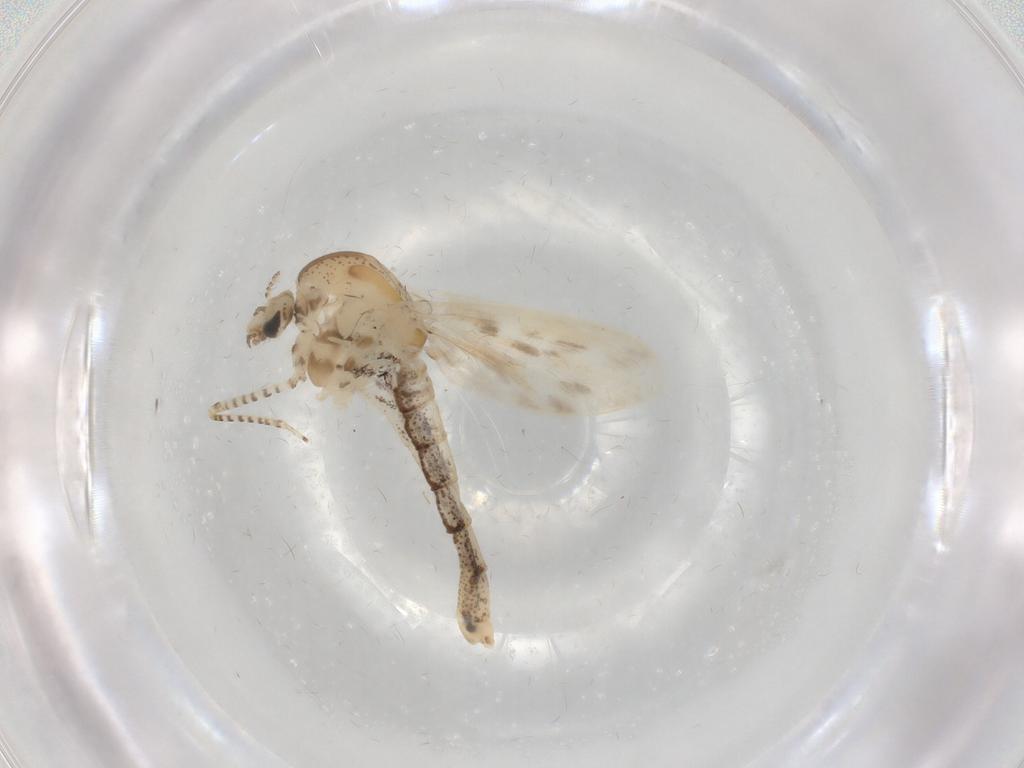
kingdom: Animalia
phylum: Arthropoda
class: Insecta
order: Diptera
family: Chaoboridae
